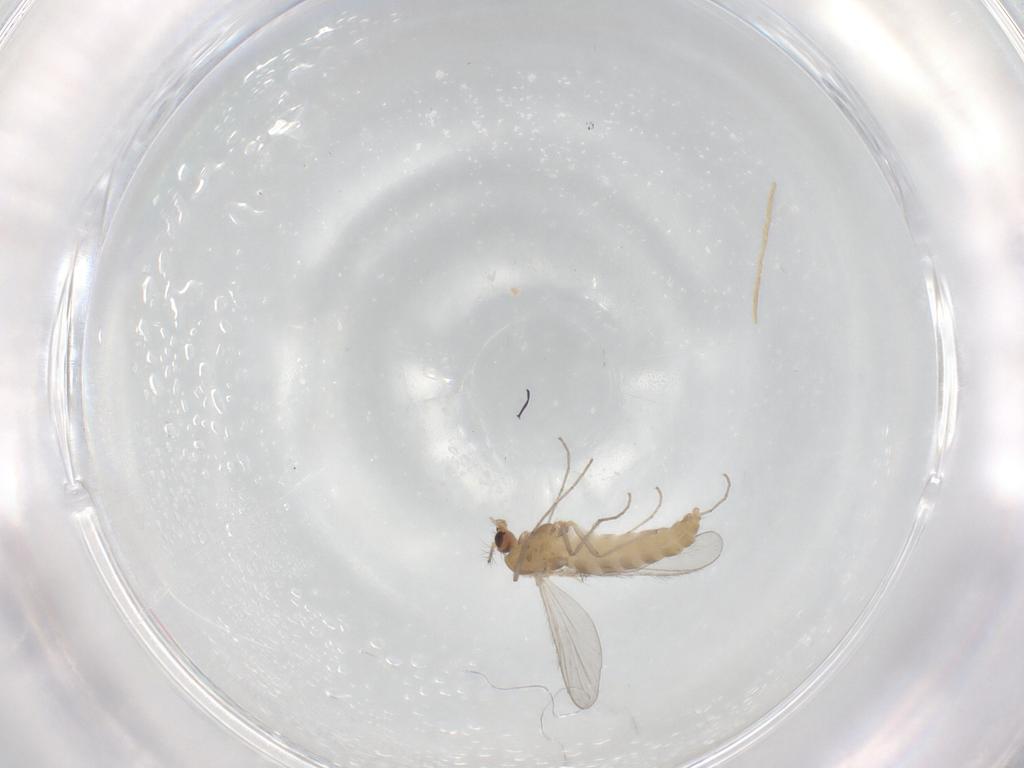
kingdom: Animalia
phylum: Arthropoda
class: Insecta
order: Diptera
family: Chironomidae
